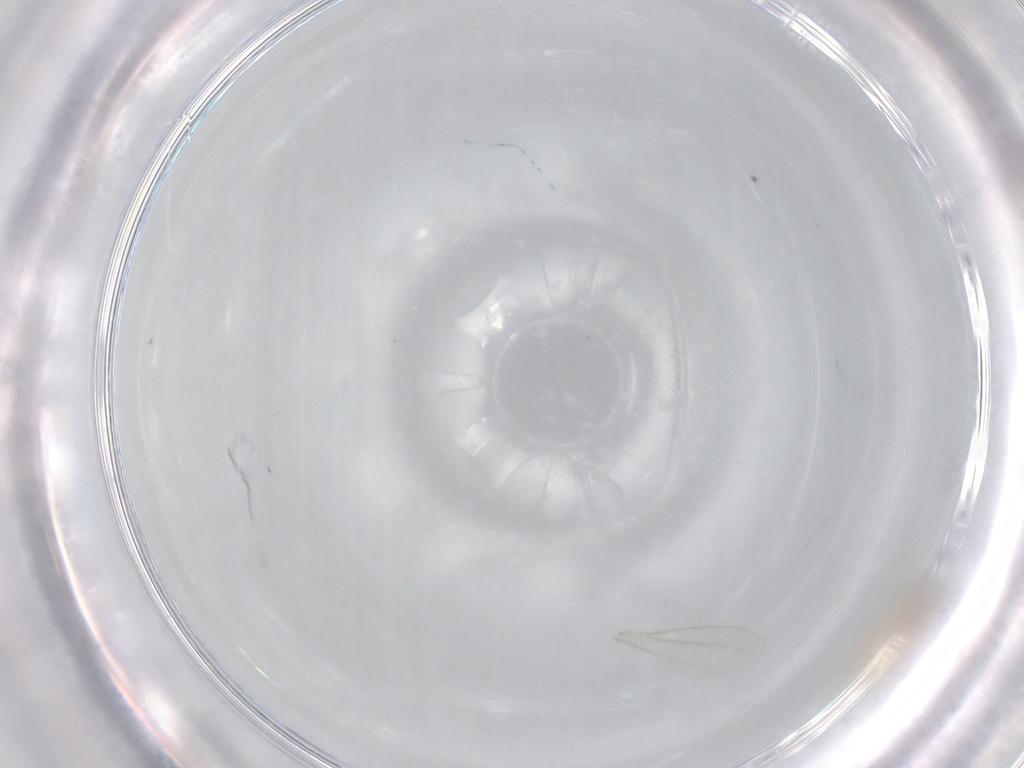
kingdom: Animalia
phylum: Arthropoda
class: Insecta
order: Diptera
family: Cecidomyiidae
